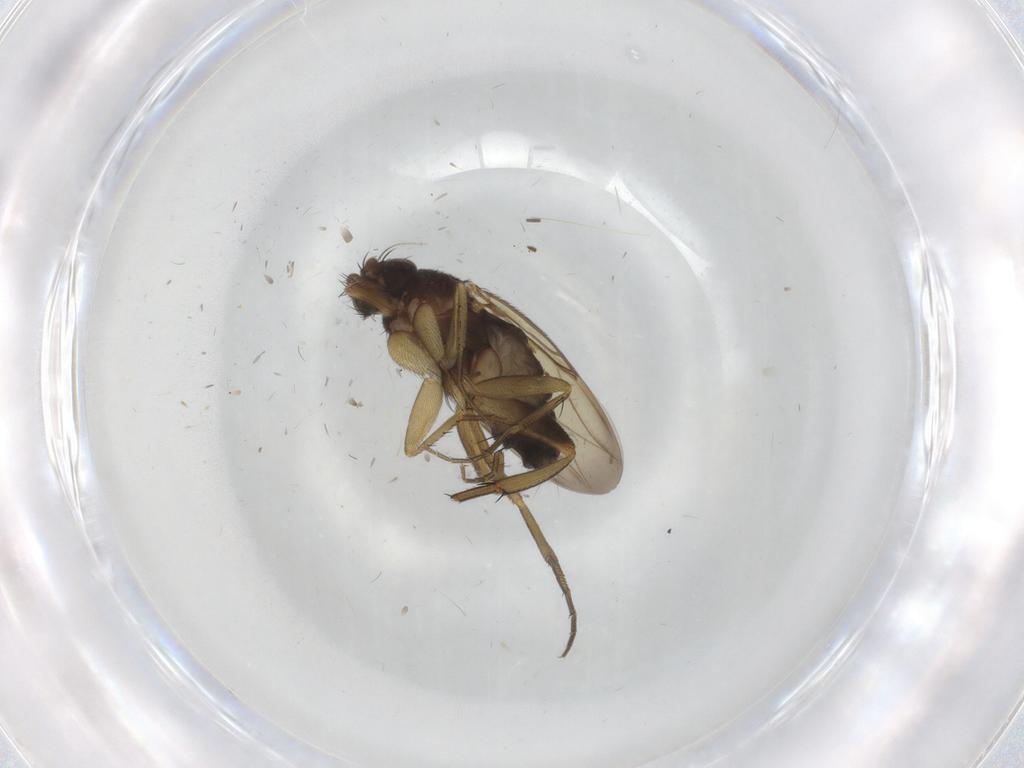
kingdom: Animalia
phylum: Arthropoda
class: Insecta
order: Diptera
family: Phoridae
